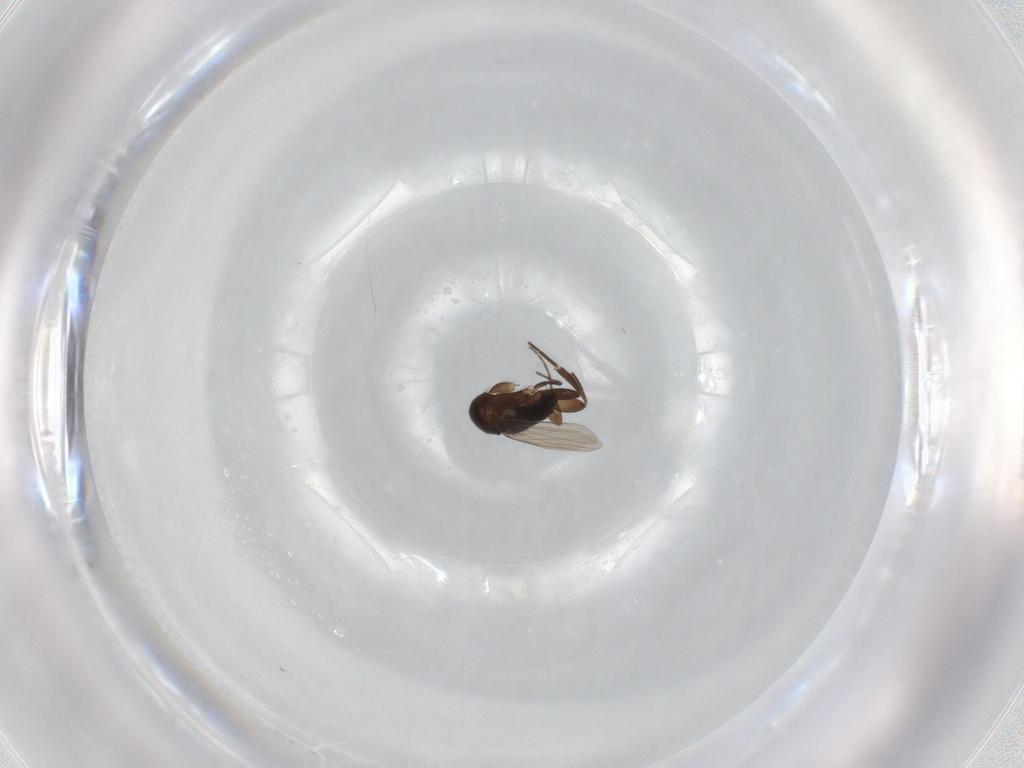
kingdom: Animalia
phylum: Arthropoda
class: Insecta
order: Diptera
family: Phoridae
